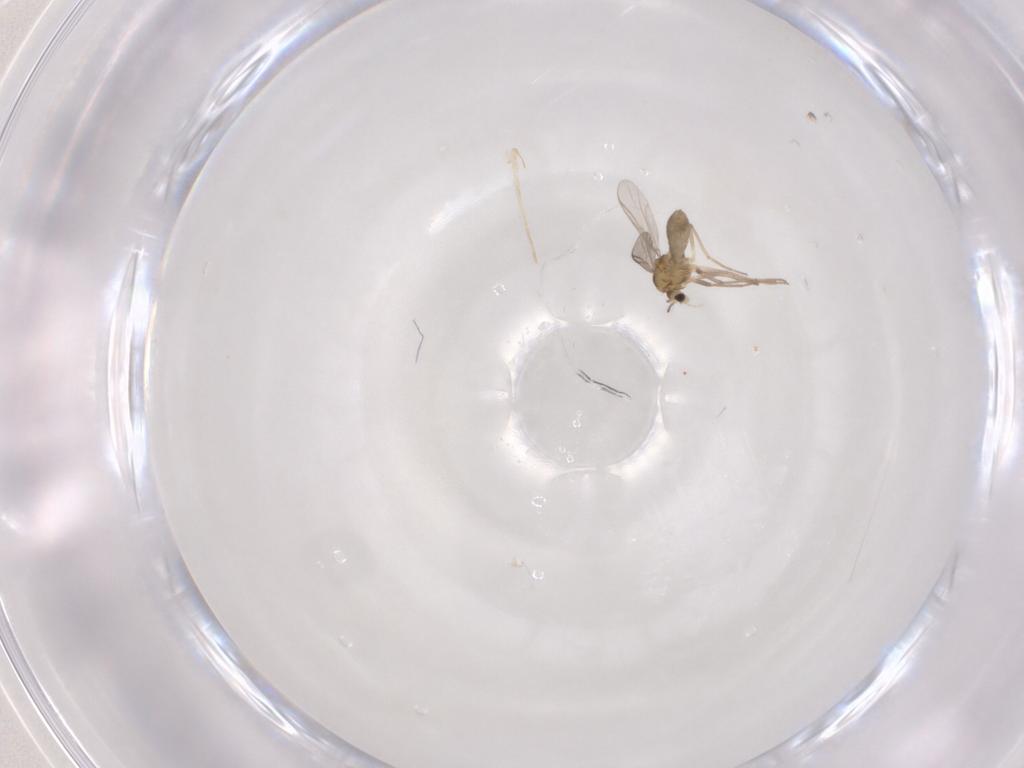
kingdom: Animalia
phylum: Arthropoda
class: Insecta
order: Diptera
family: Chironomidae
